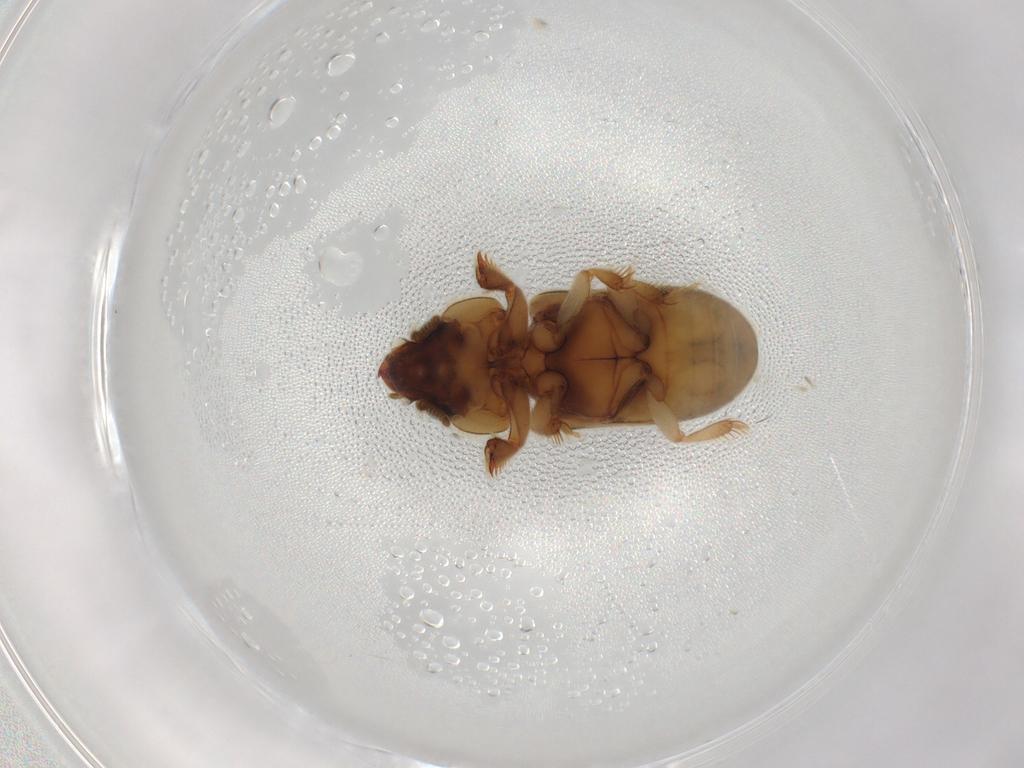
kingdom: Animalia
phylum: Arthropoda
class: Insecta
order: Coleoptera
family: Heteroceridae
